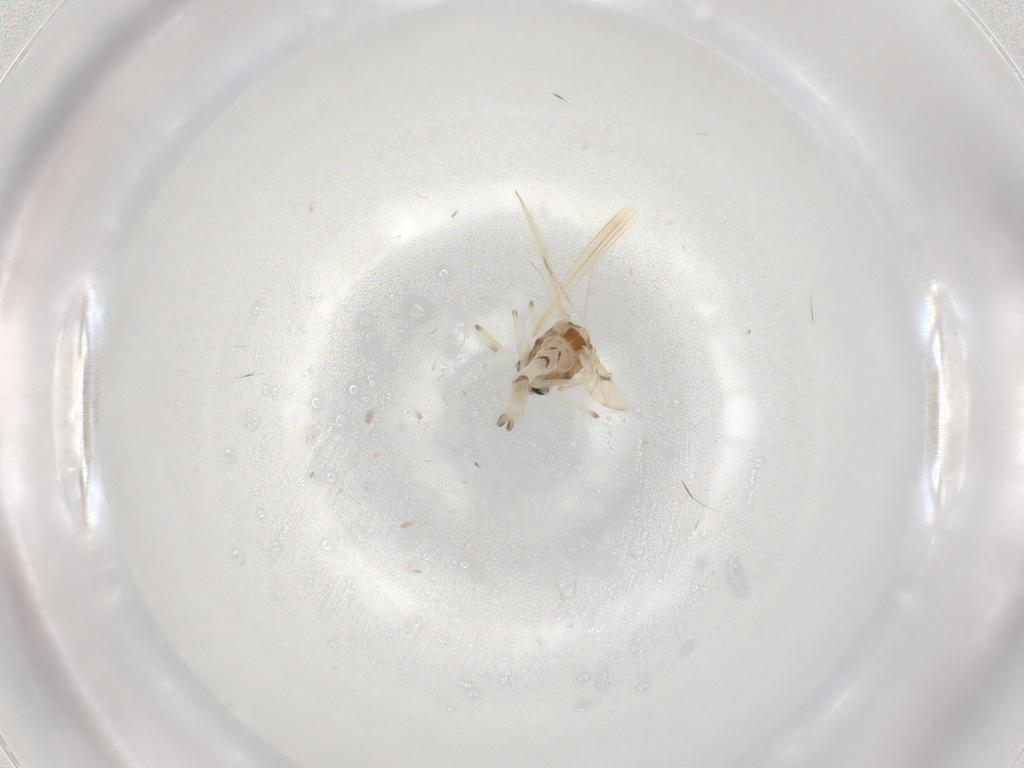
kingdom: Animalia
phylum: Arthropoda
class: Insecta
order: Diptera
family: Chironomidae
